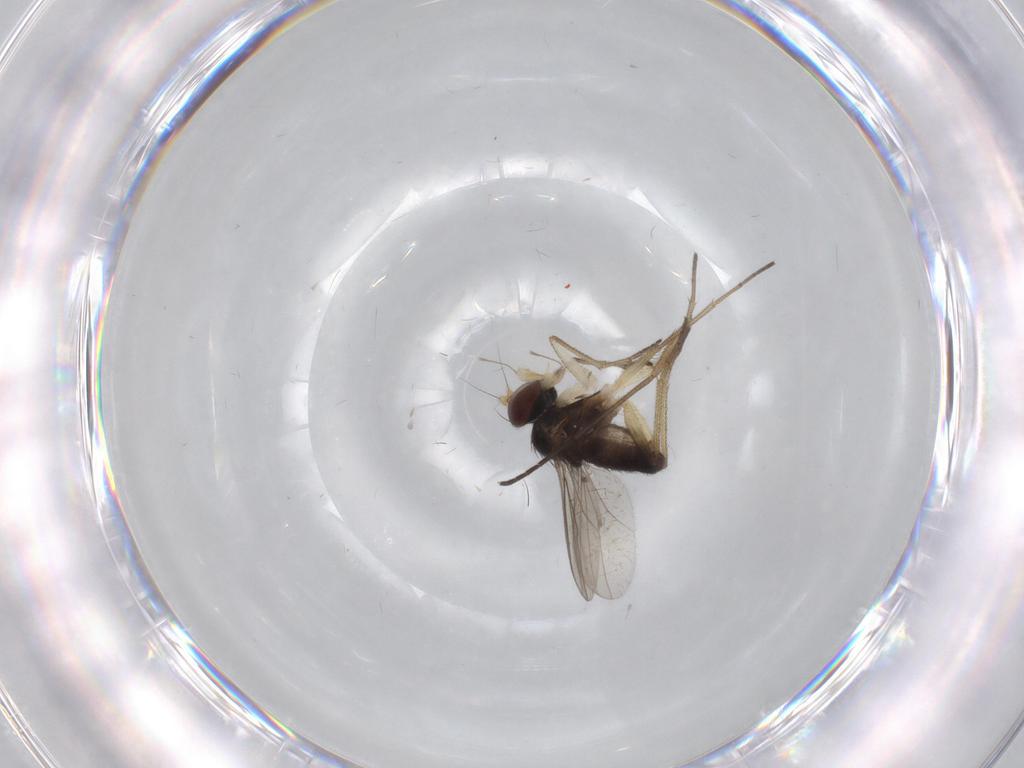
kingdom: Animalia
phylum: Arthropoda
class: Insecta
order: Diptera
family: Dolichopodidae
